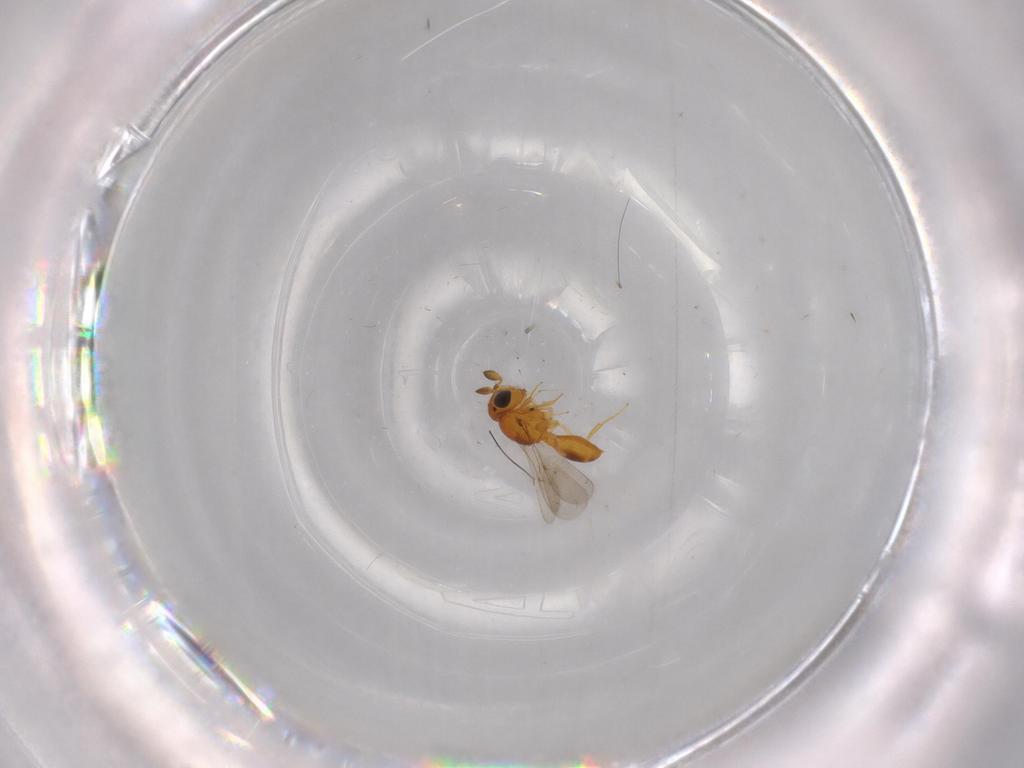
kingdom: Animalia
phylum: Arthropoda
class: Insecta
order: Hymenoptera
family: Scelionidae
